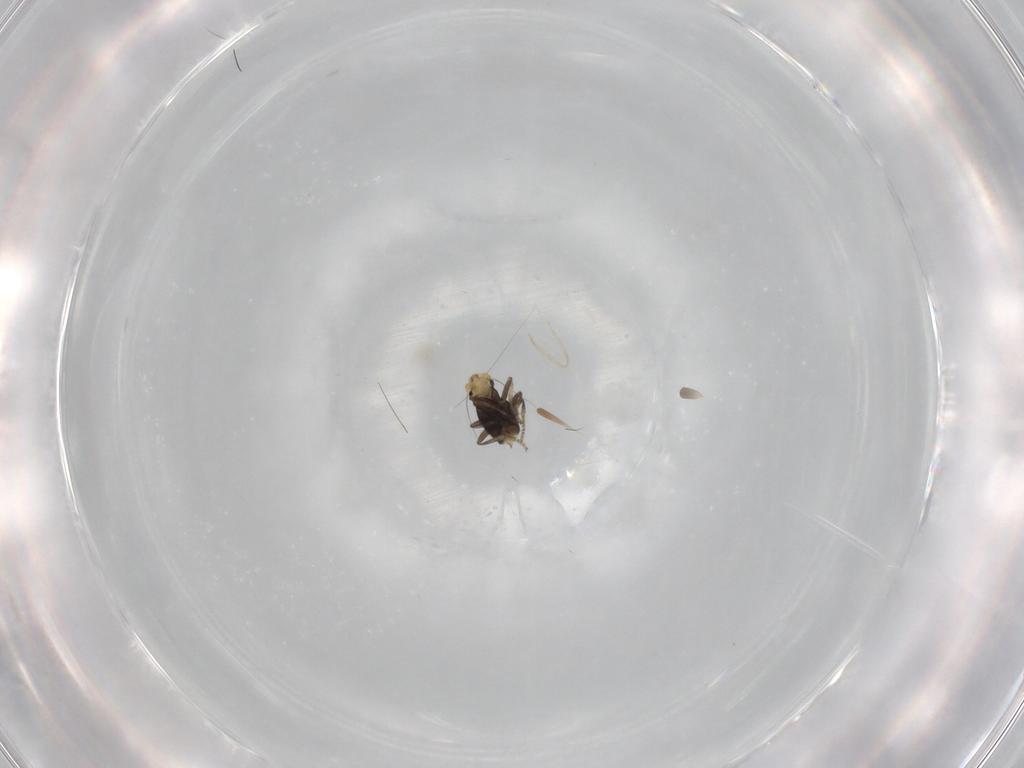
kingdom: Animalia
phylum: Arthropoda
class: Insecta
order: Diptera
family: Phoridae
